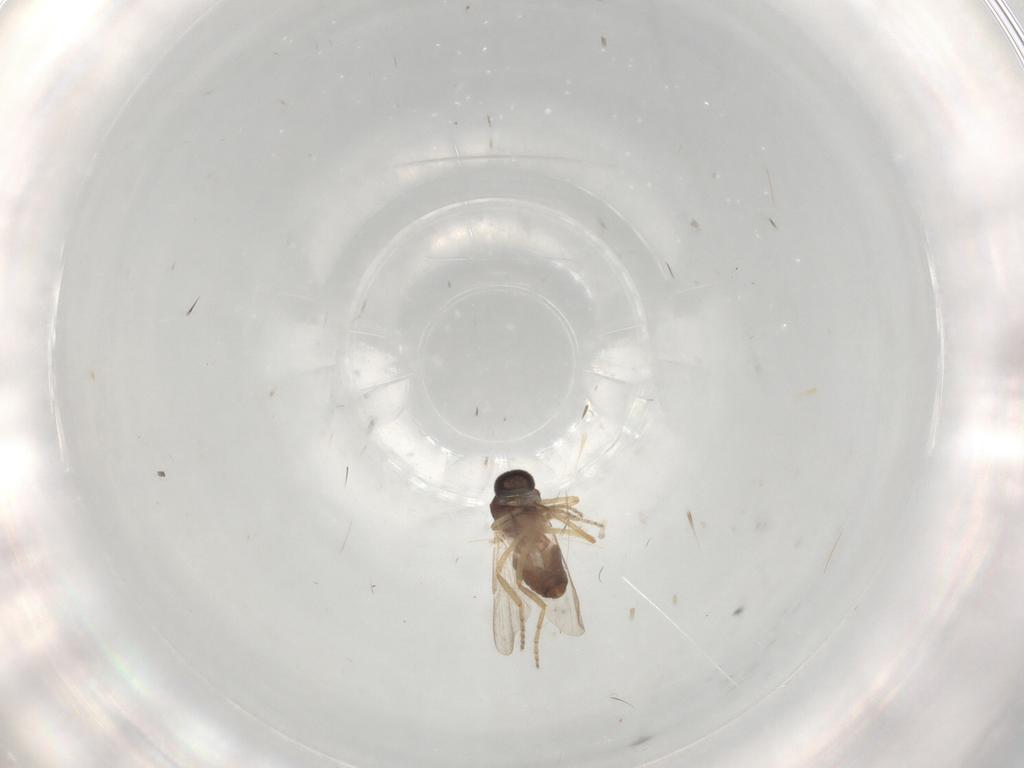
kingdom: Animalia
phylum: Arthropoda
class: Insecta
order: Diptera
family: Ceratopogonidae
